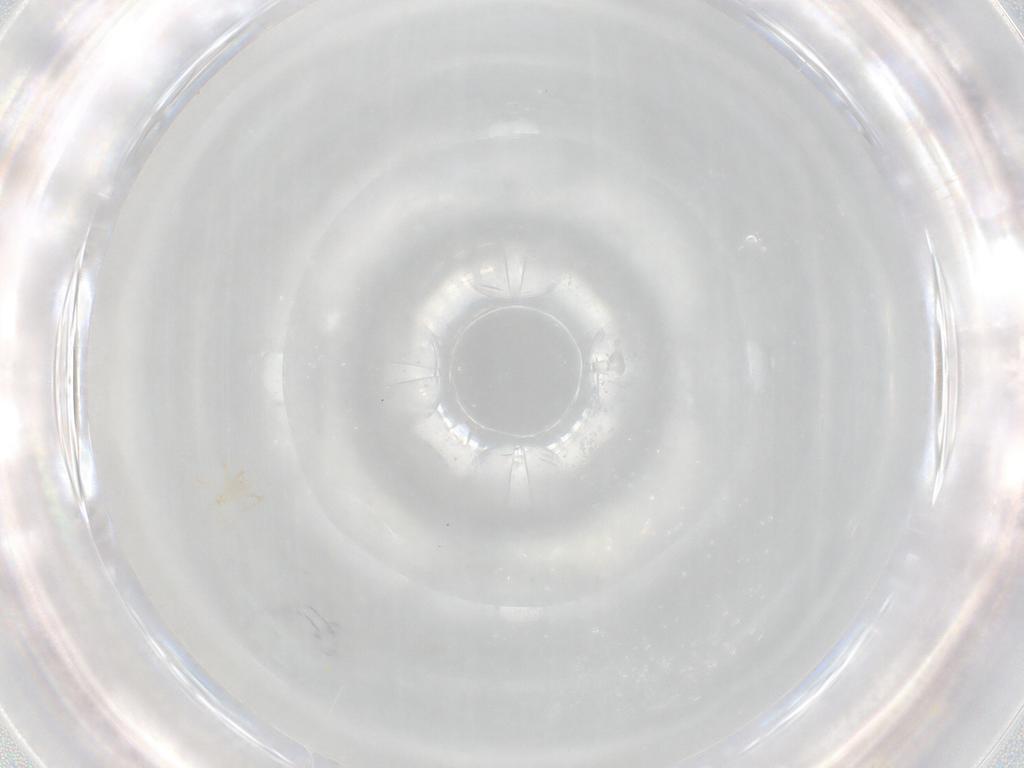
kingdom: Animalia
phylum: Arthropoda
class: Arachnida
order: Trombidiformes
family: Erythraeidae
